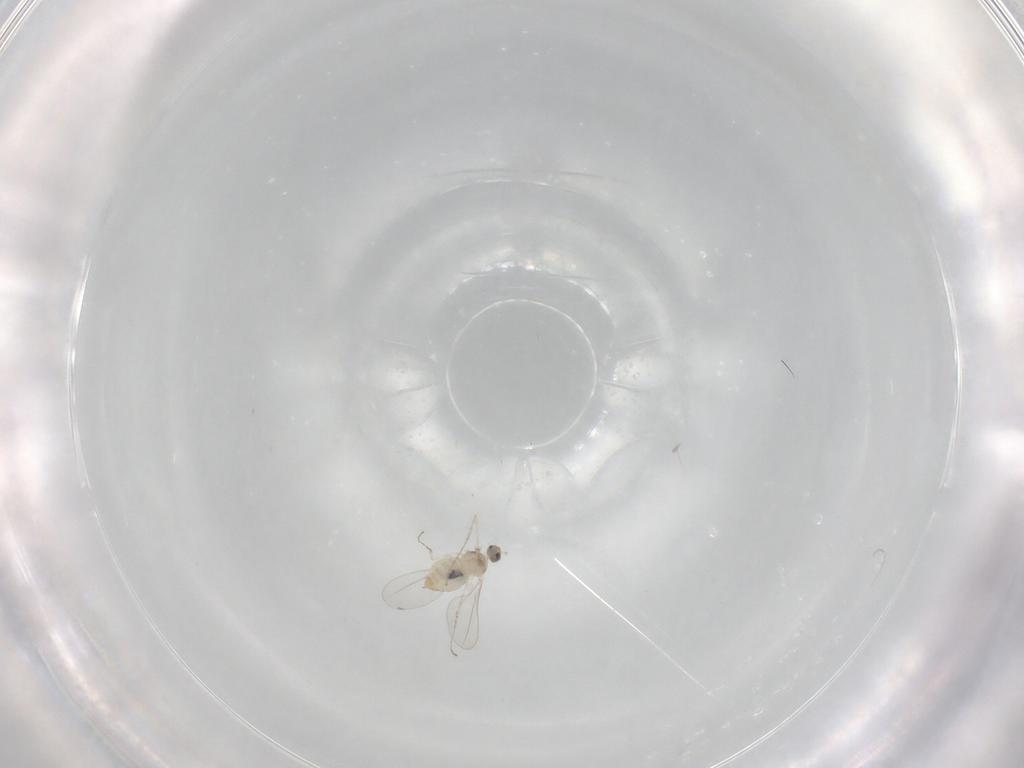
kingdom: Animalia
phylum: Arthropoda
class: Insecta
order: Diptera
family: Cecidomyiidae
